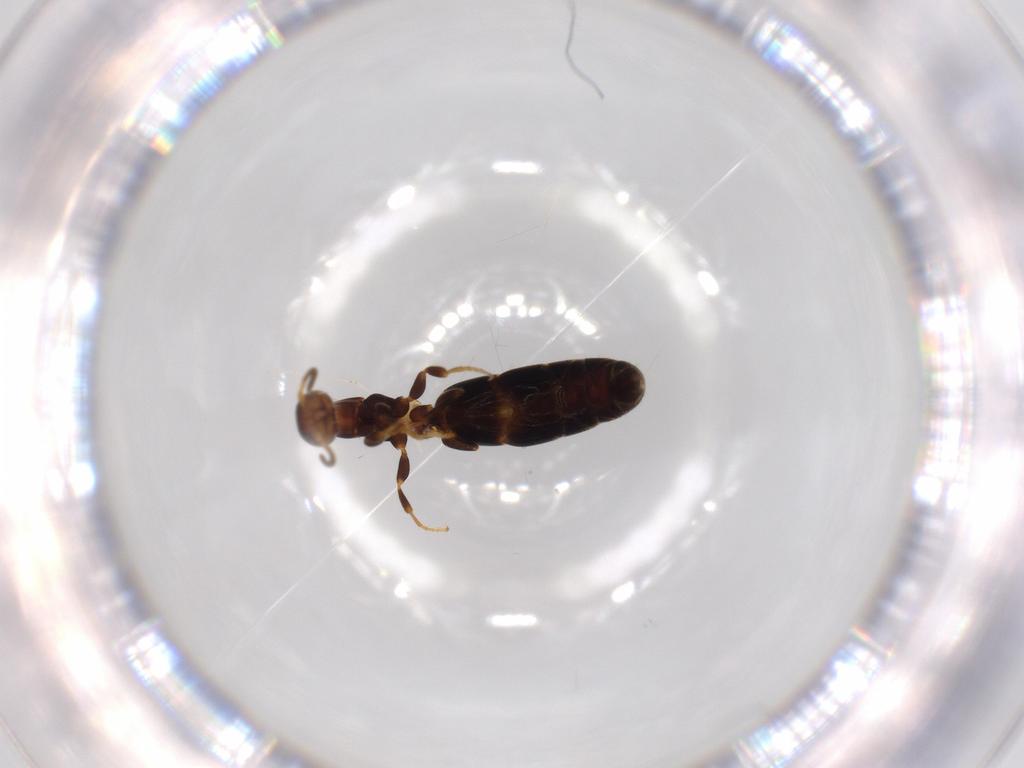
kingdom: Animalia
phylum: Arthropoda
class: Insecta
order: Hymenoptera
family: Bethylidae
